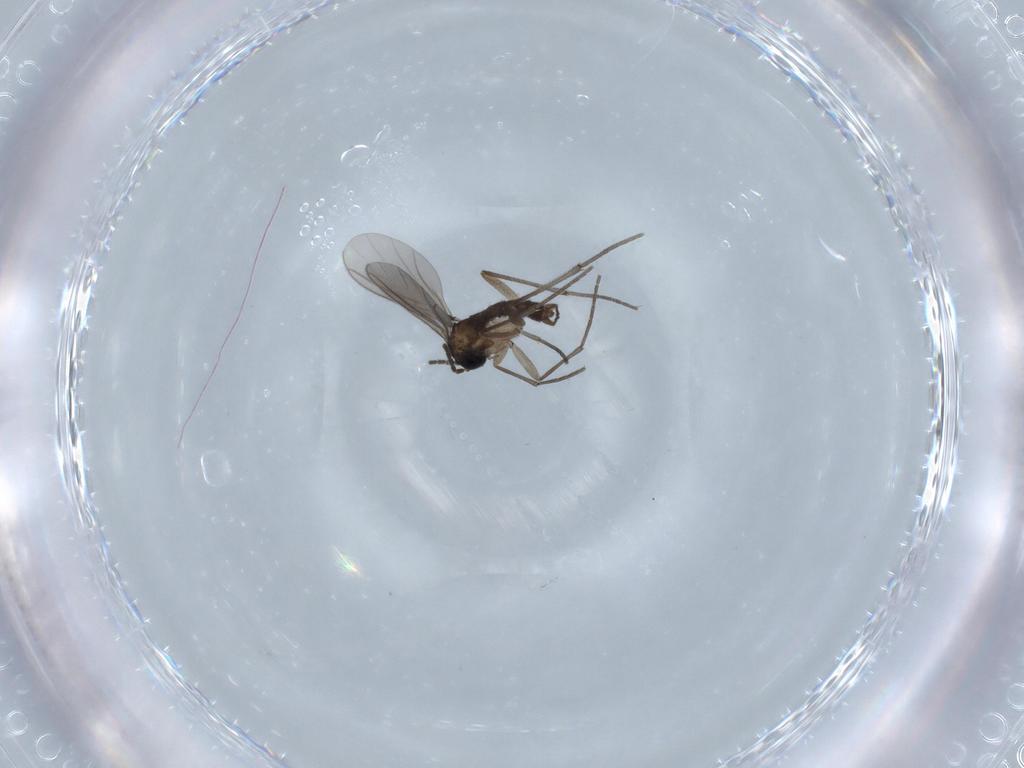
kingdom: Animalia
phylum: Arthropoda
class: Insecta
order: Diptera
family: Sciaridae
